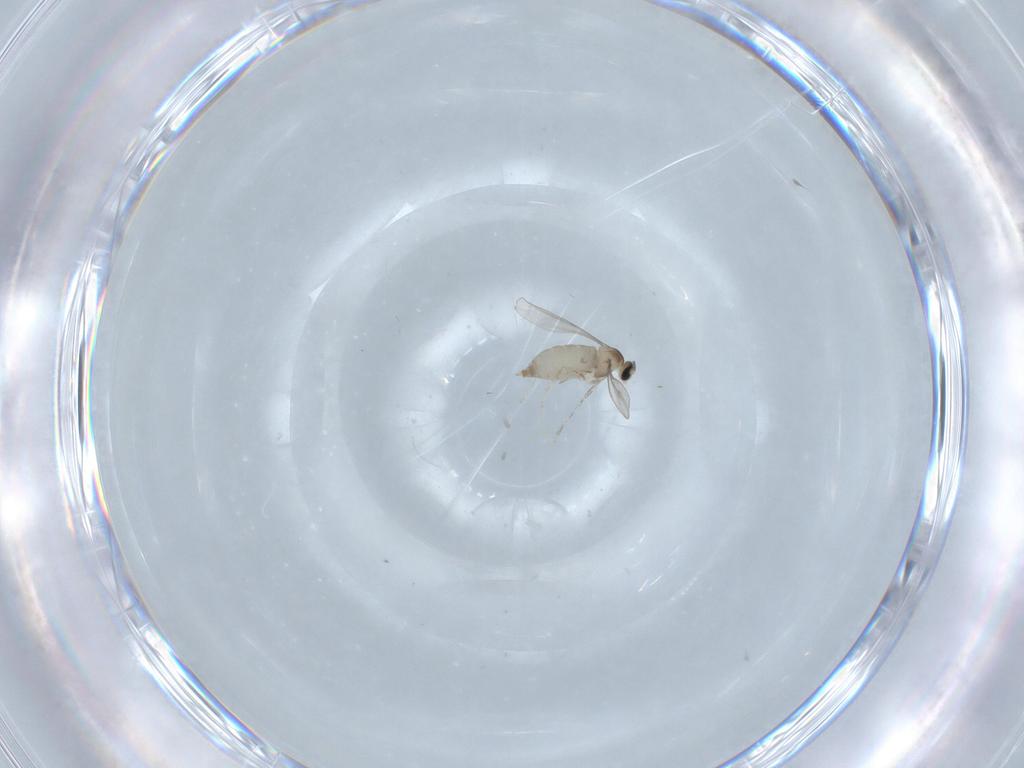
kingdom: Animalia
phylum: Arthropoda
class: Insecta
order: Diptera
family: Cecidomyiidae
